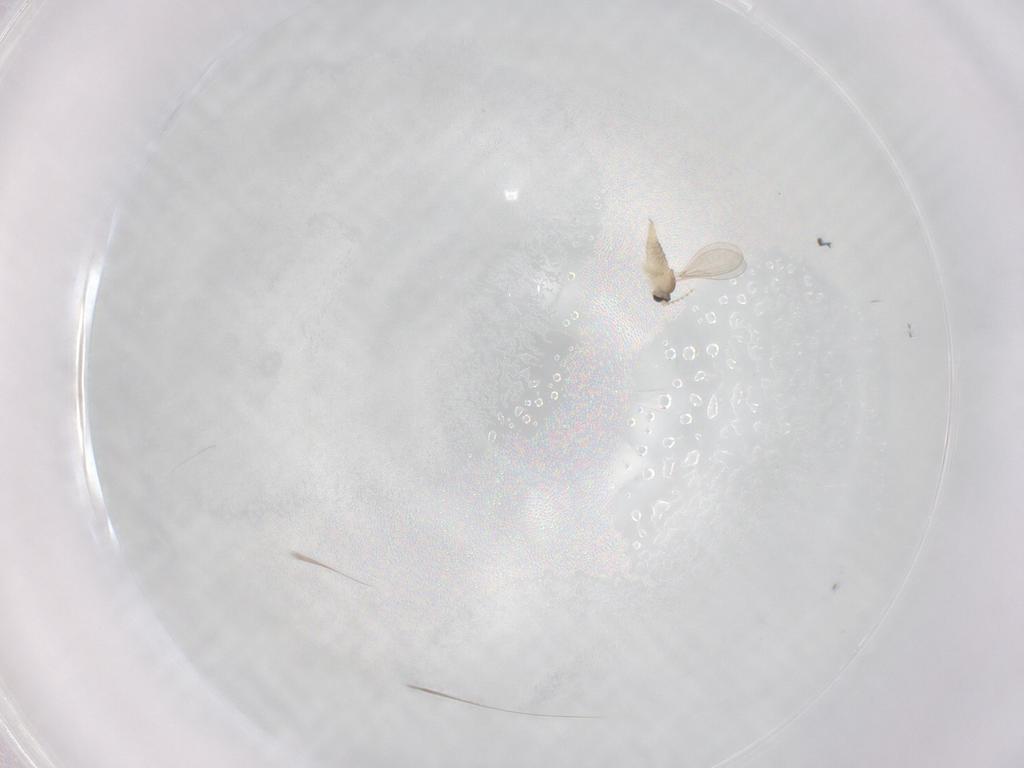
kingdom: Animalia
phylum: Arthropoda
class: Insecta
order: Diptera
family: Cecidomyiidae
